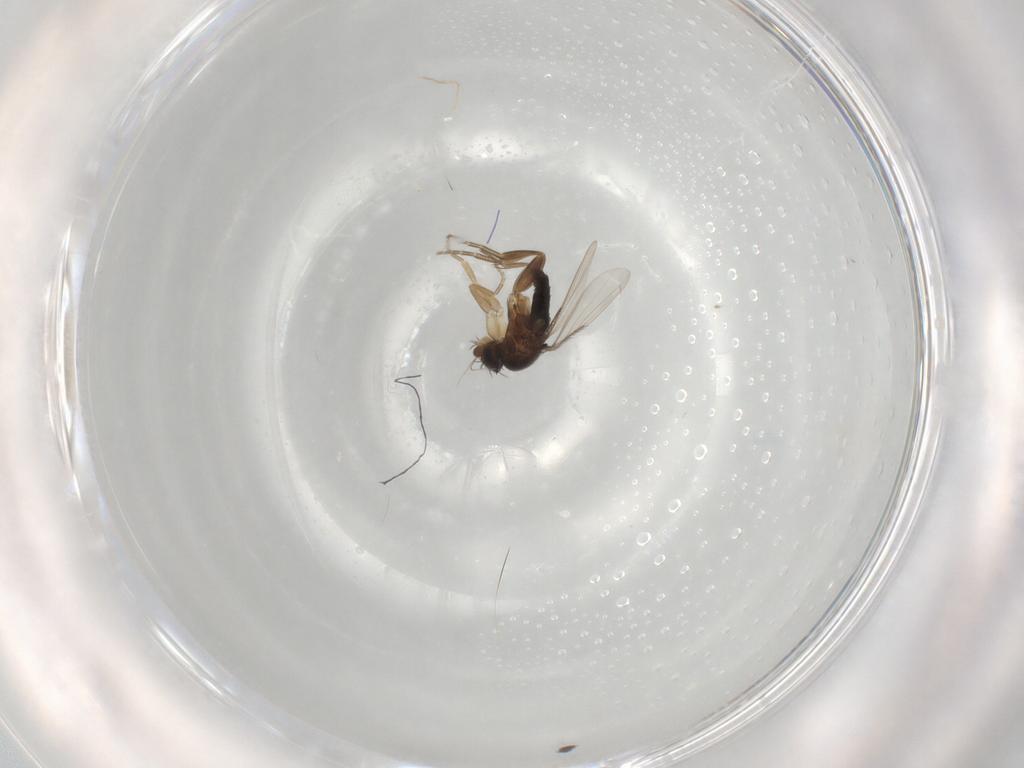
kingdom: Animalia
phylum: Arthropoda
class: Insecta
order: Diptera
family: Phoridae
